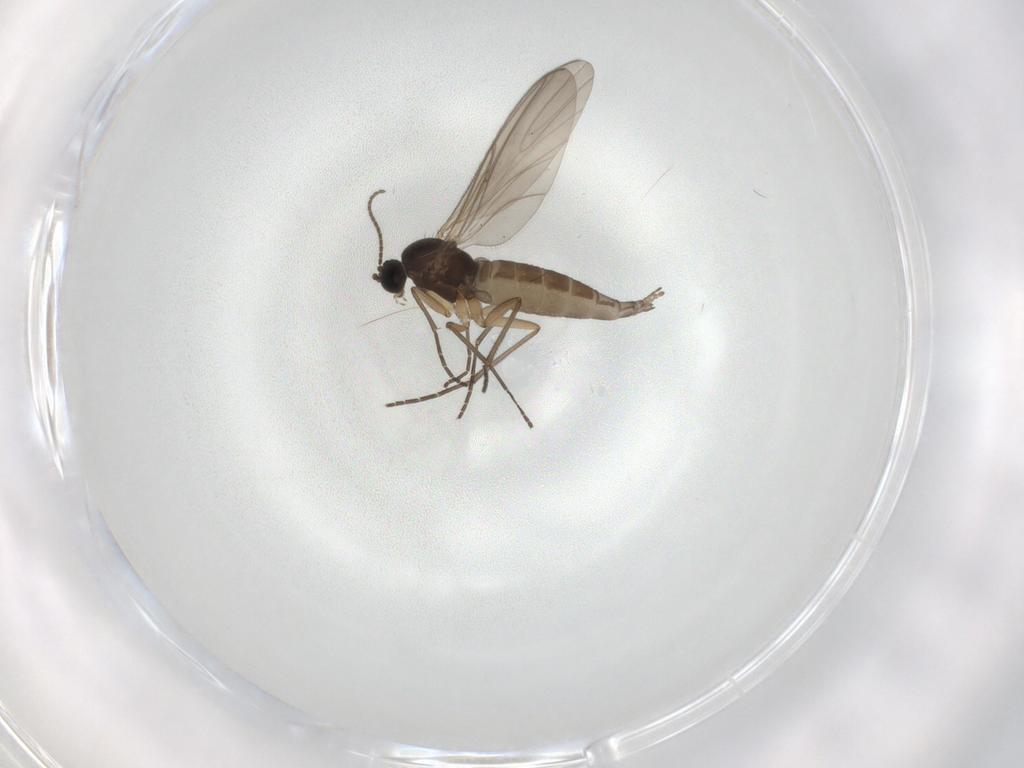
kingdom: Animalia
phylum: Arthropoda
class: Insecta
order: Diptera
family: Sciaridae
